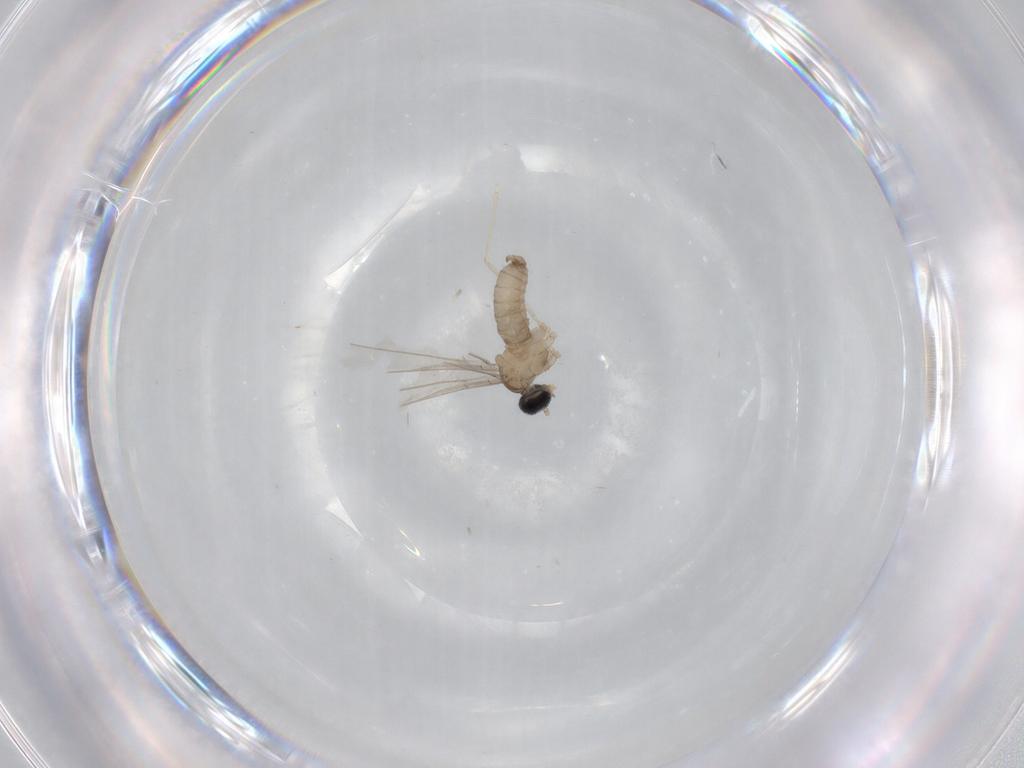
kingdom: Animalia
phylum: Arthropoda
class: Insecta
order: Diptera
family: Cecidomyiidae
